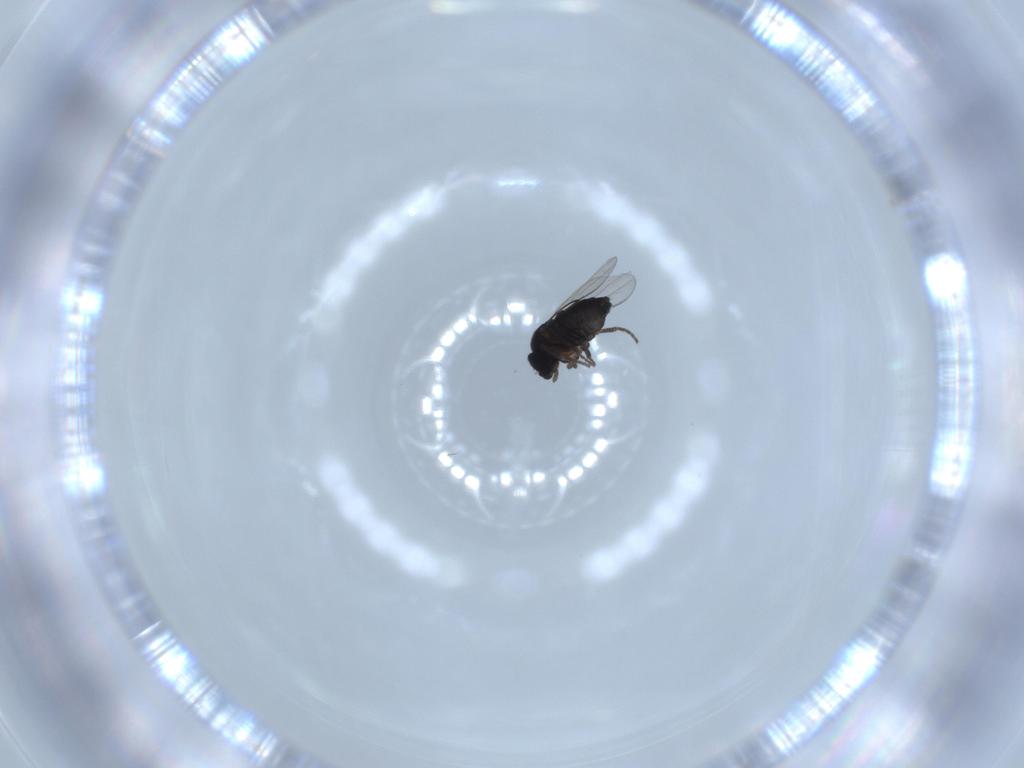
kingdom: Animalia
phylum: Arthropoda
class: Insecta
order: Diptera
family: Phoridae
